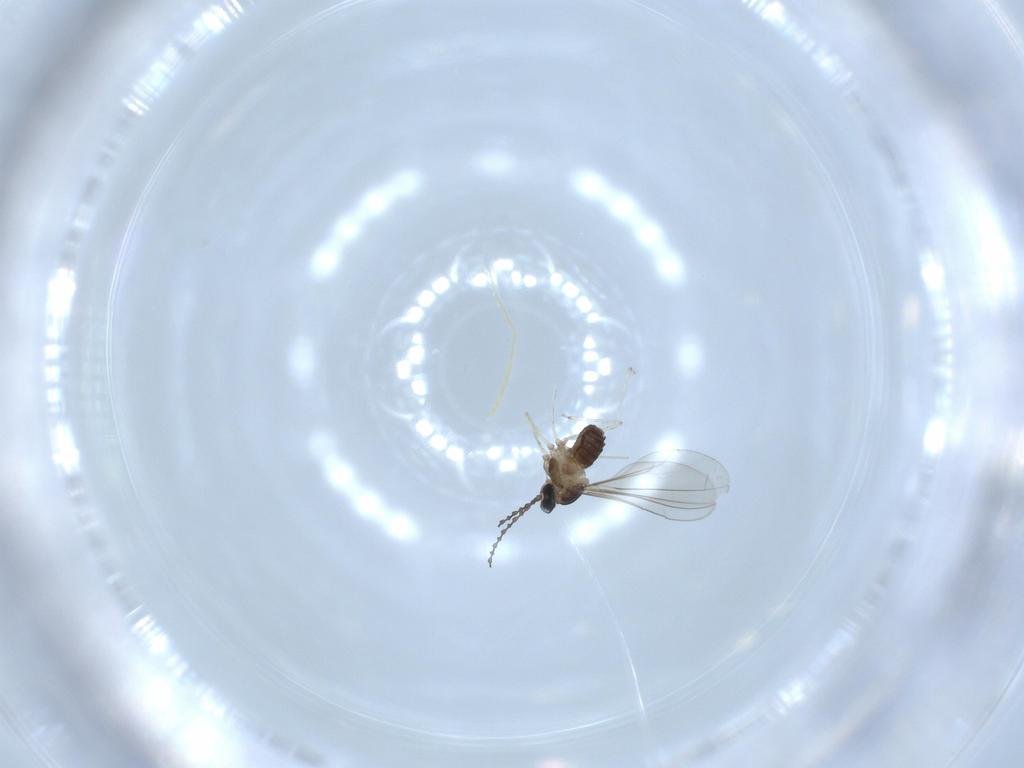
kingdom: Animalia
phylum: Arthropoda
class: Insecta
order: Diptera
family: Cecidomyiidae
